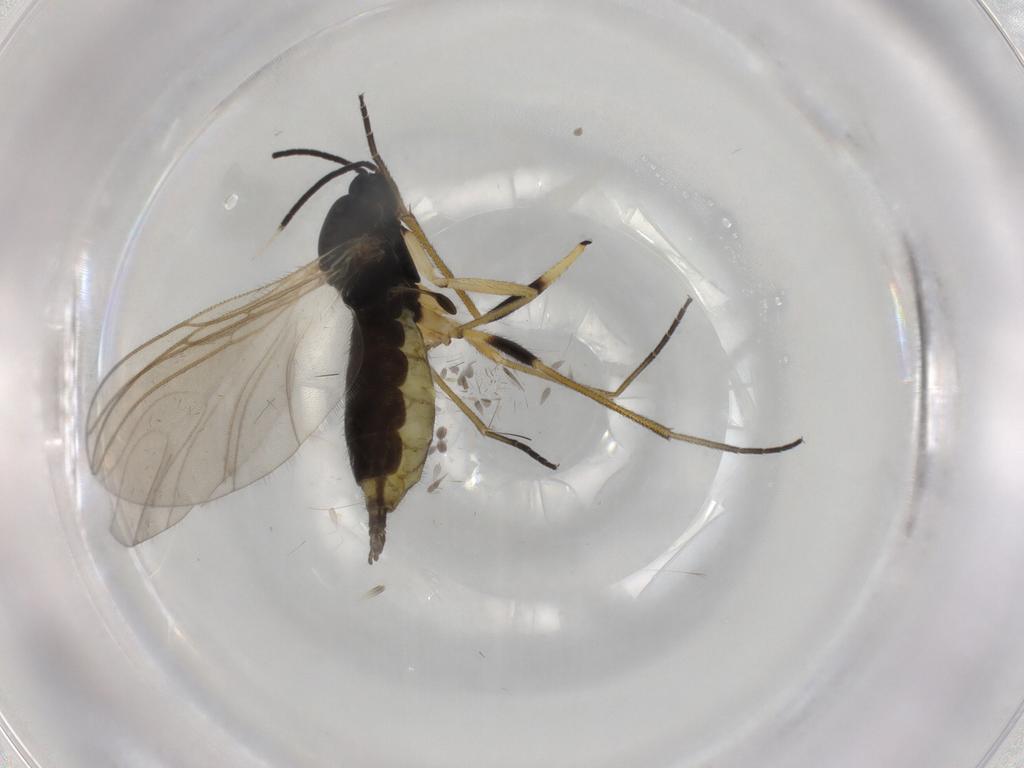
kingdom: Animalia
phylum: Arthropoda
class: Insecta
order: Diptera
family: Sciaridae
